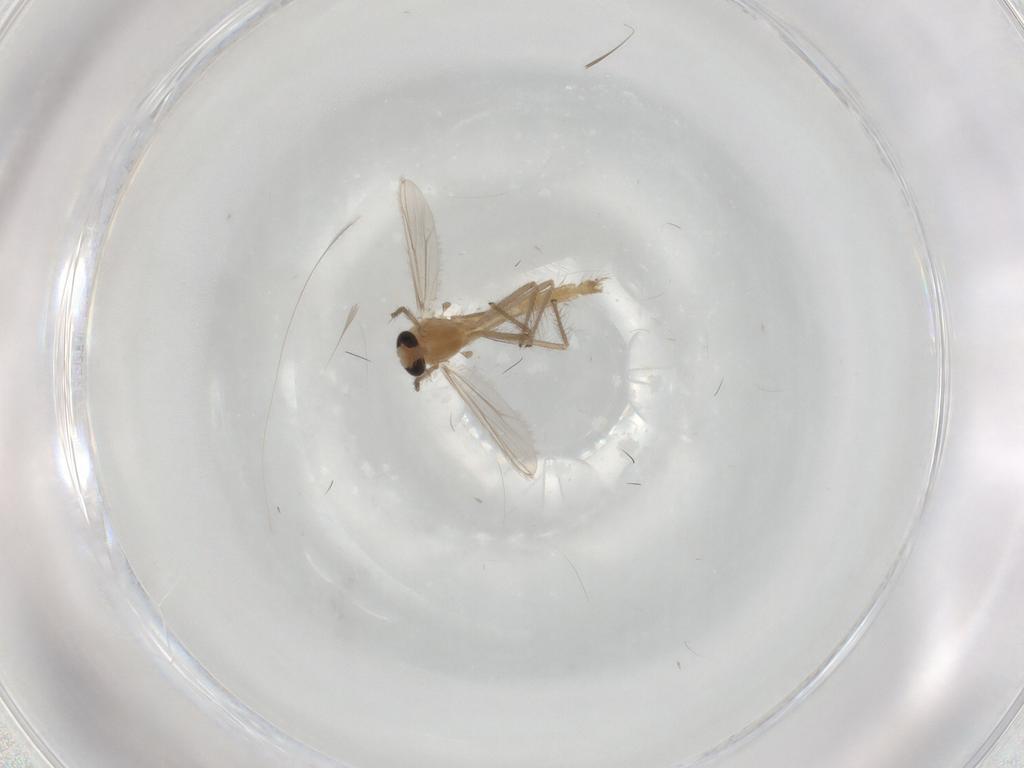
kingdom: Animalia
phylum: Arthropoda
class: Insecta
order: Diptera
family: Chironomidae
